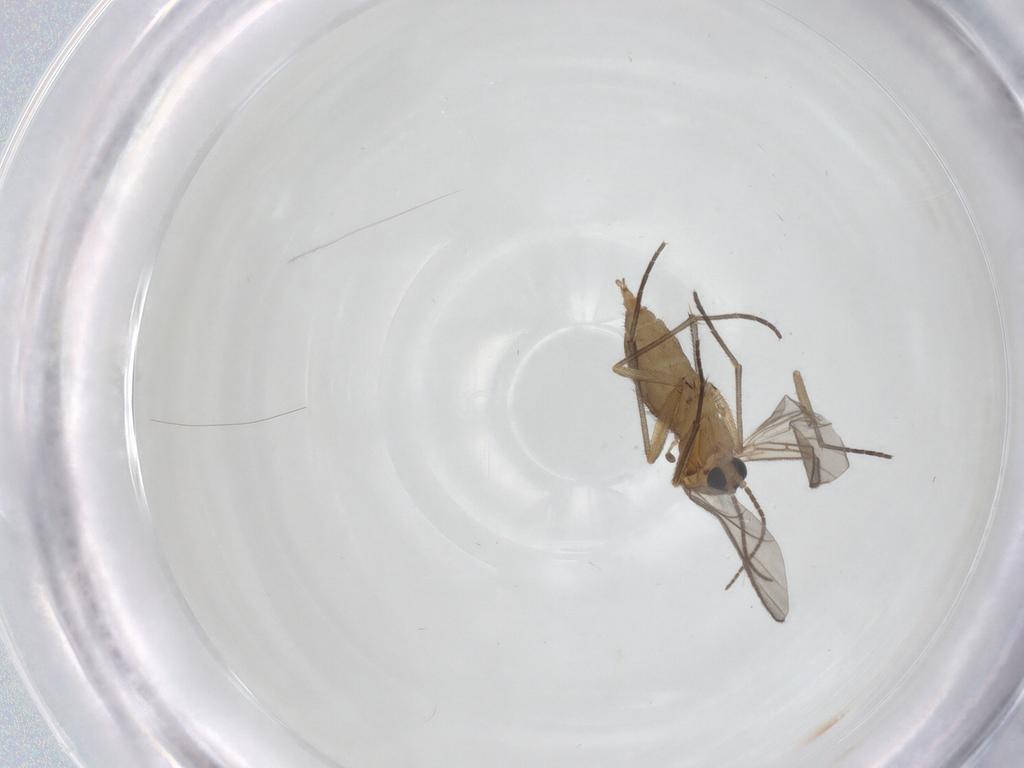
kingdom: Animalia
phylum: Arthropoda
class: Insecta
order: Diptera
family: Sciaridae
